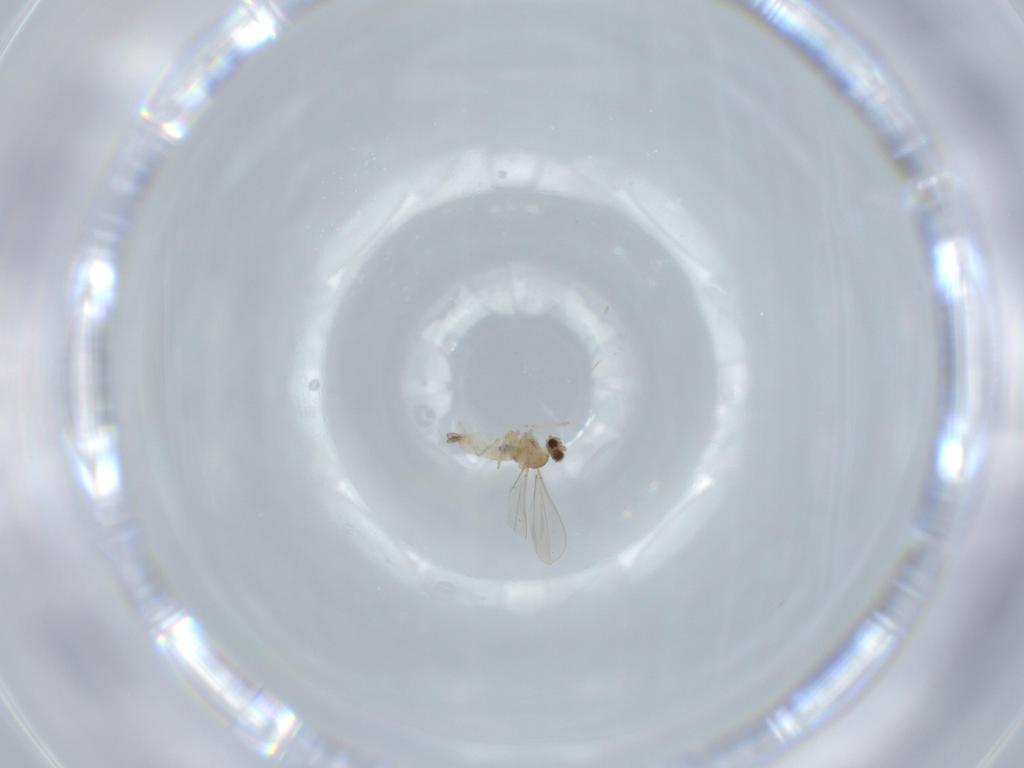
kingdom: Animalia
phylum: Arthropoda
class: Insecta
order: Diptera
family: Cecidomyiidae
